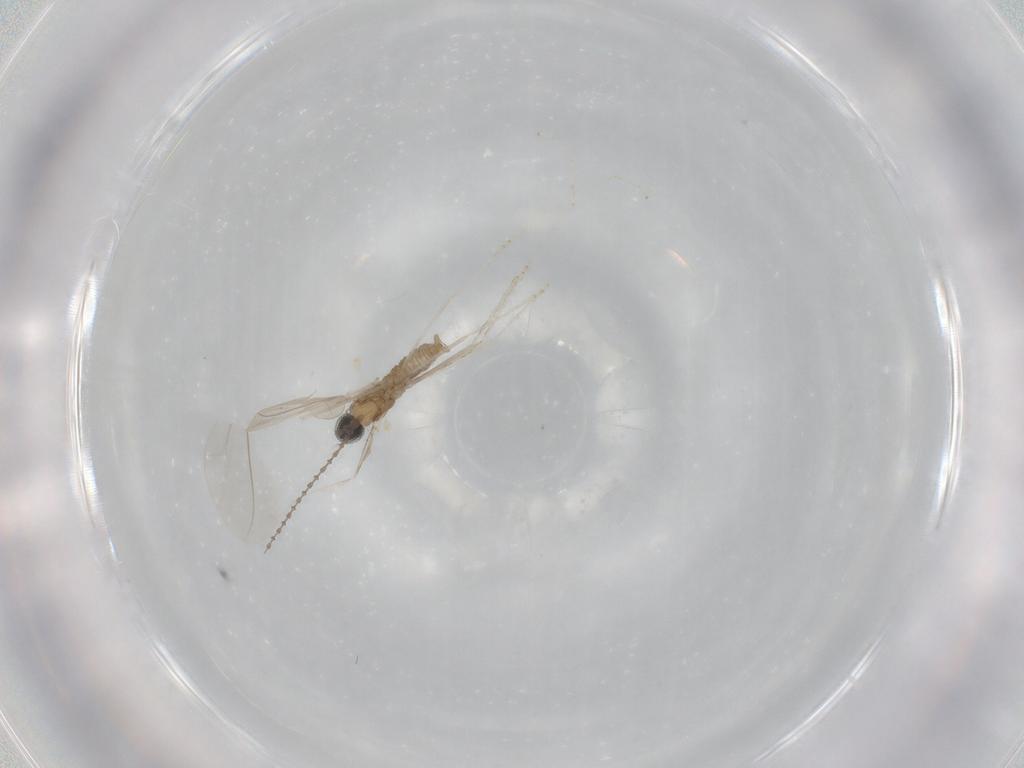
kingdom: Animalia
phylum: Arthropoda
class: Insecta
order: Diptera
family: Cecidomyiidae
